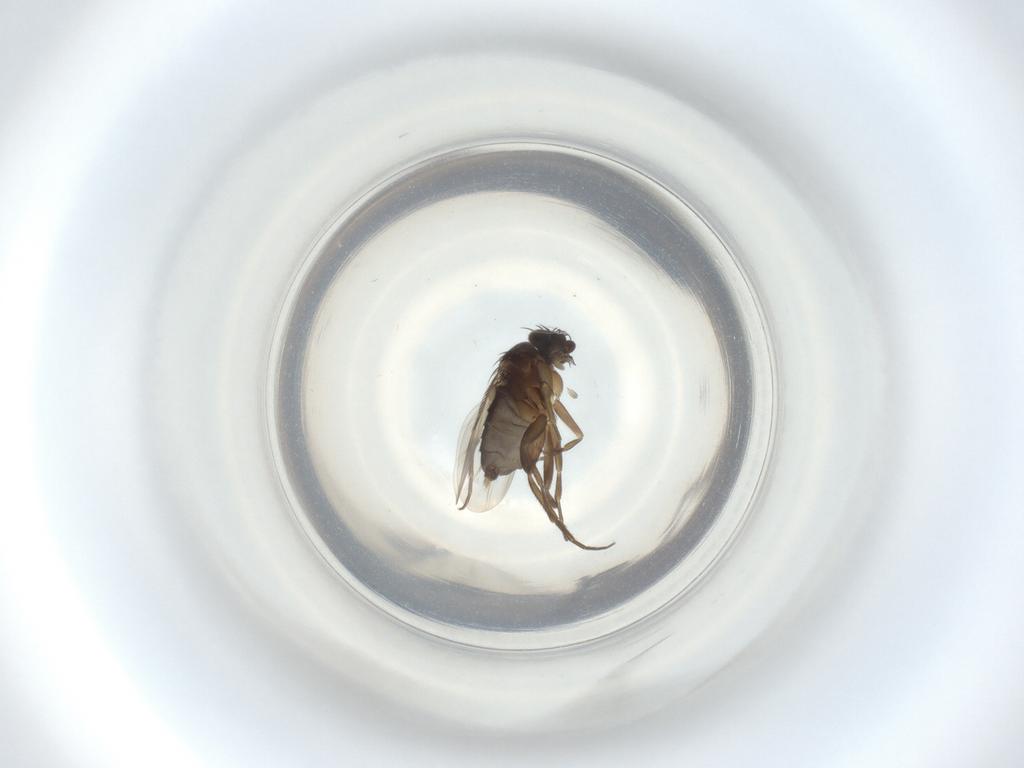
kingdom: Animalia
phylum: Arthropoda
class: Insecta
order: Diptera
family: Phoridae
